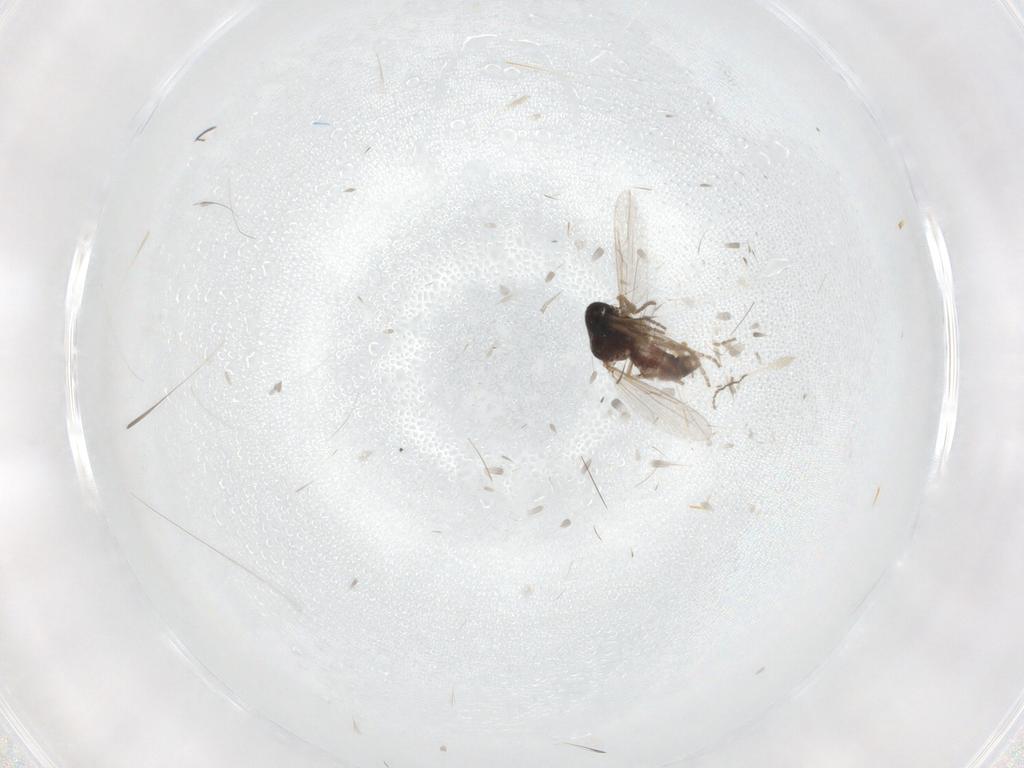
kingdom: Animalia
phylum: Arthropoda
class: Insecta
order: Diptera
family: Ceratopogonidae
